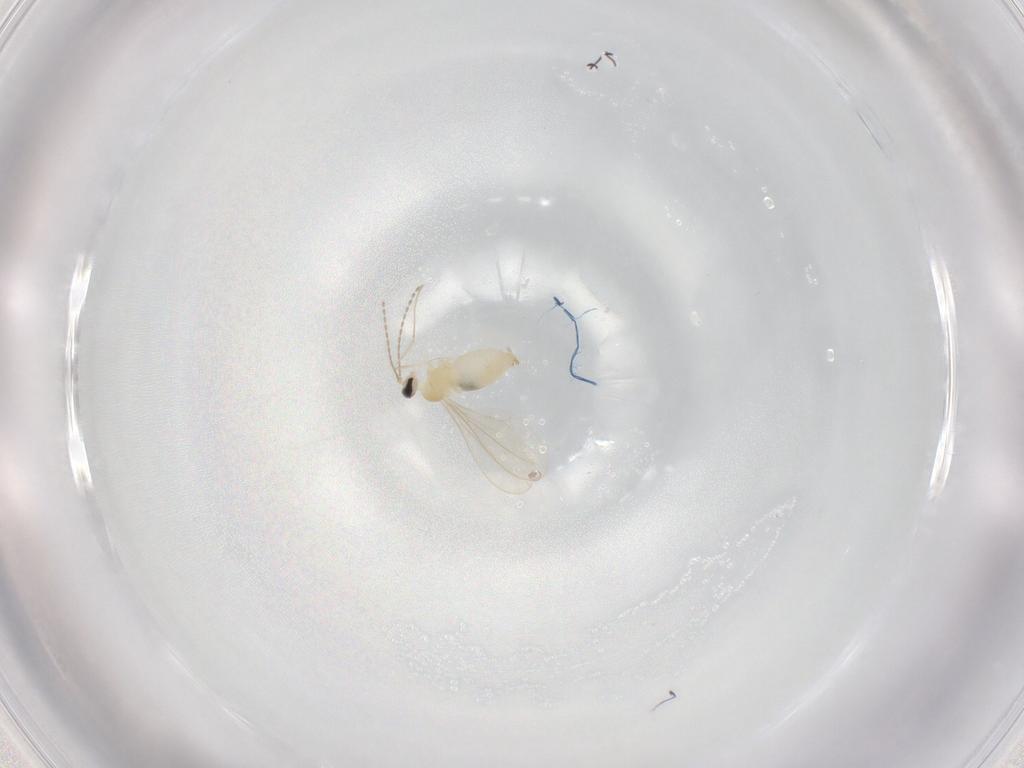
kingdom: Animalia
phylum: Arthropoda
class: Insecta
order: Diptera
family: Cecidomyiidae
